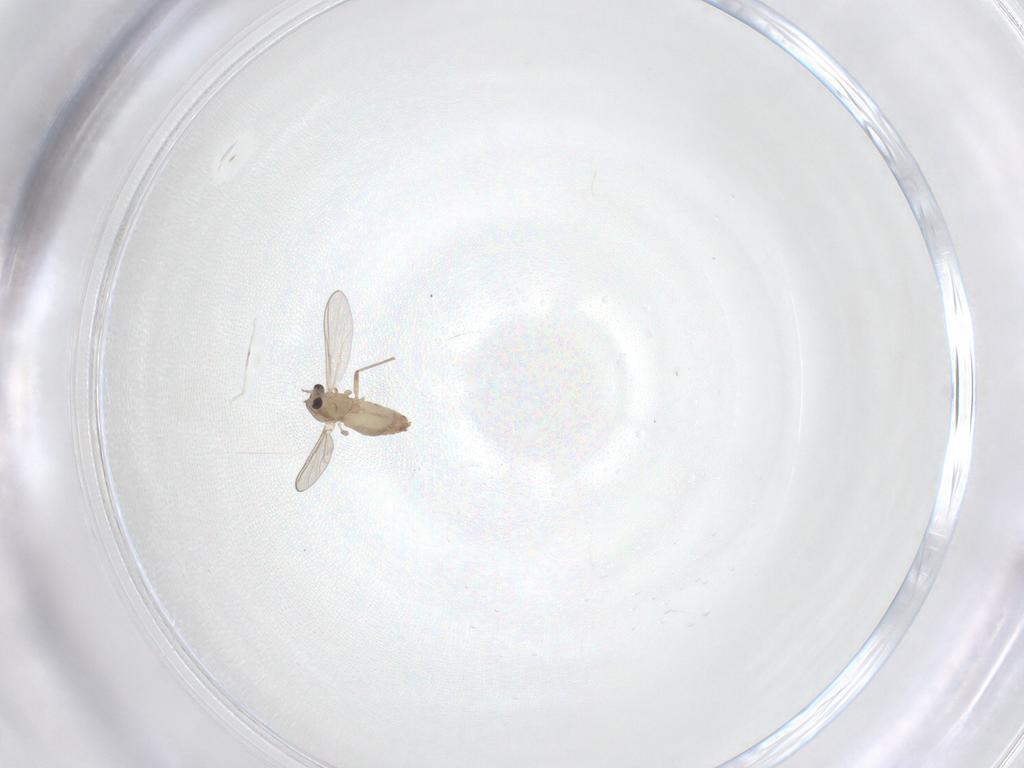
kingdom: Animalia
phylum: Arthropoda
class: Insecta
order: Diptera
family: Chironomidae
